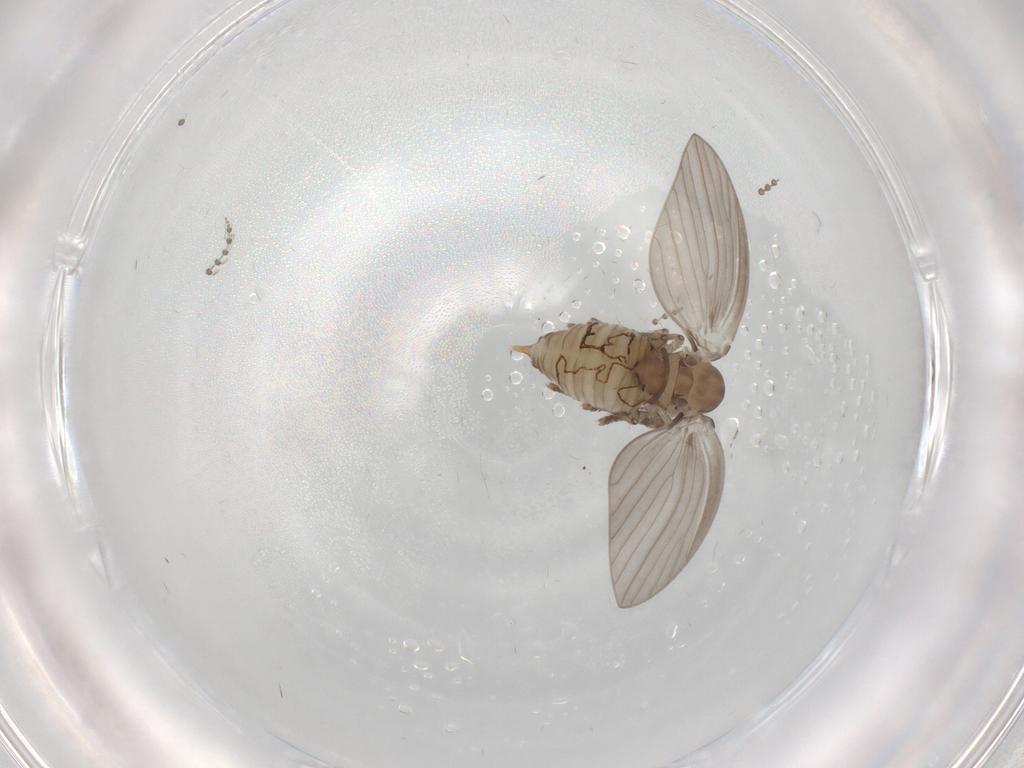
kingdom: Animalia
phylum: Arthropoda
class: Insecta
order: Diptera
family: Psychodidae
